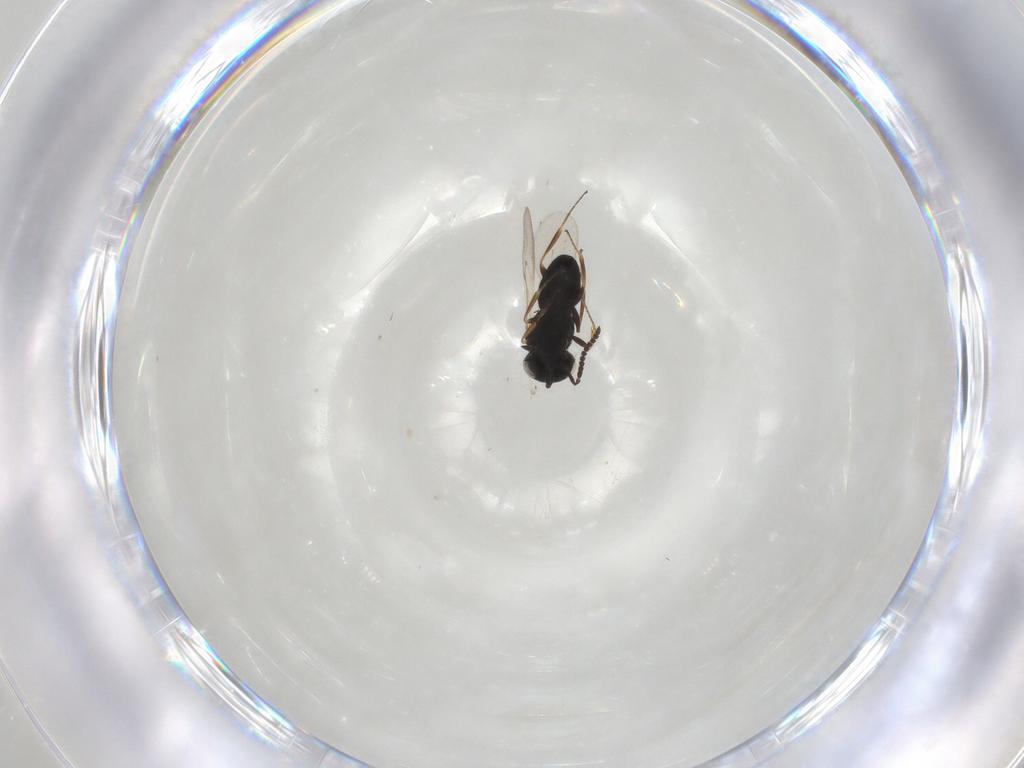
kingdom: Animalia
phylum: Arthropoda
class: Insecta
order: Hymenoptera
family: Scelionidae
